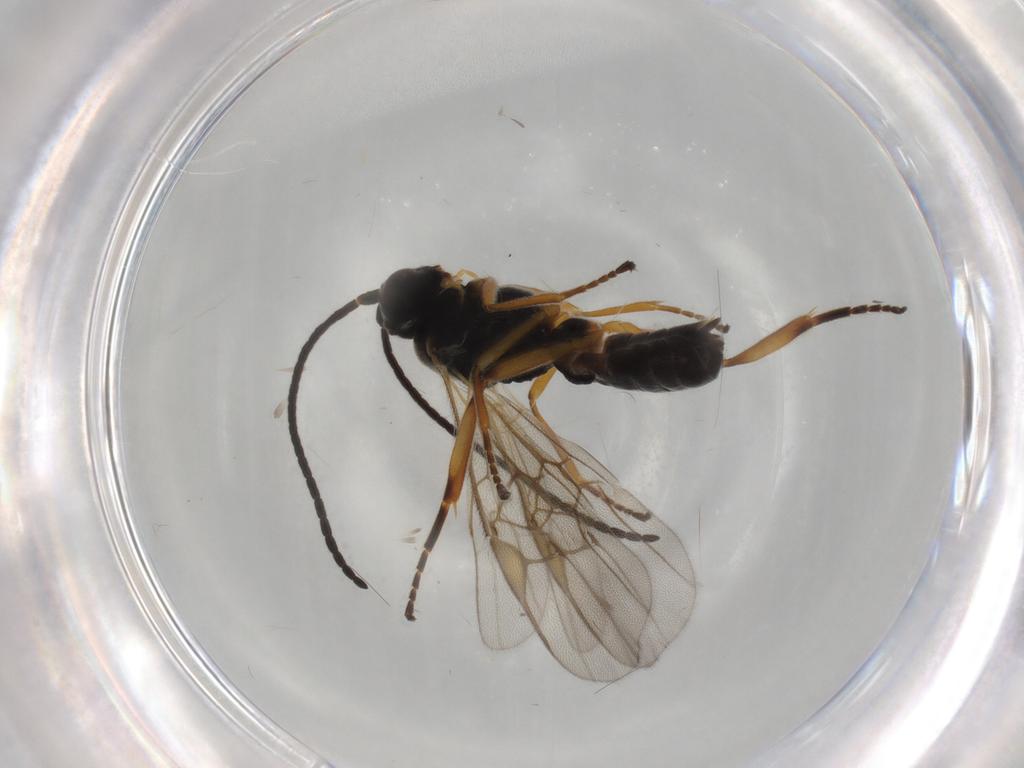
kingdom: Animalia
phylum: Arthropoda
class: Insecta
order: Hymenoptera
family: Braconidae
